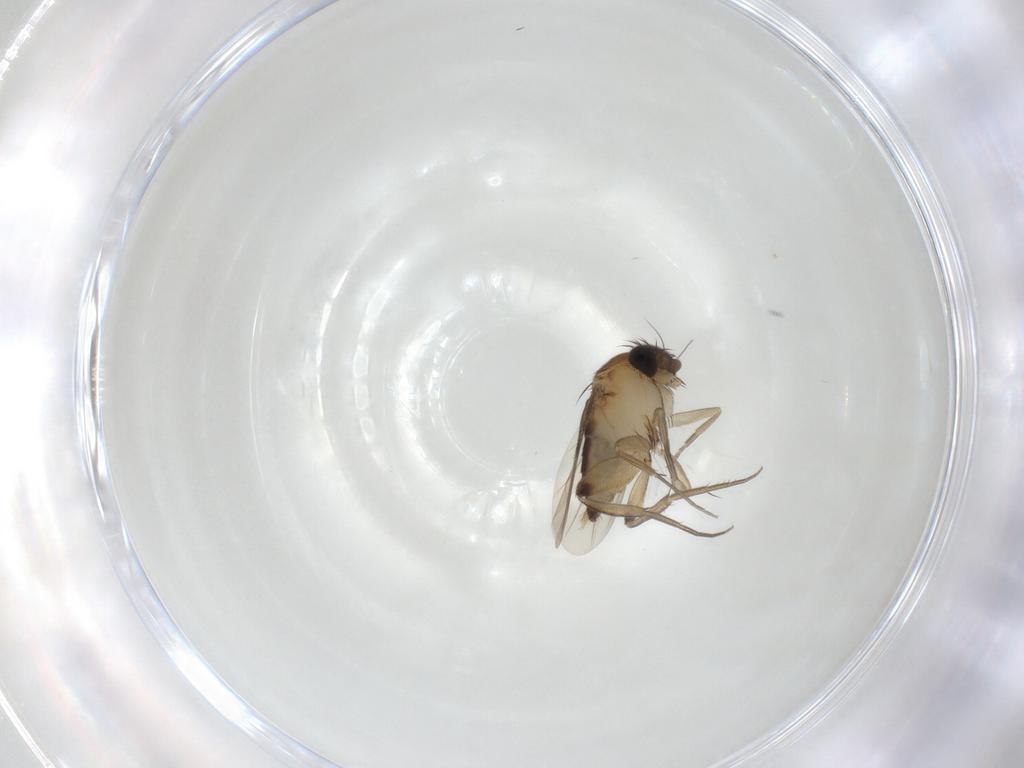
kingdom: Animalia
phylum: Arthropoda
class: Insecta
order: Diptera
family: Phoridae
